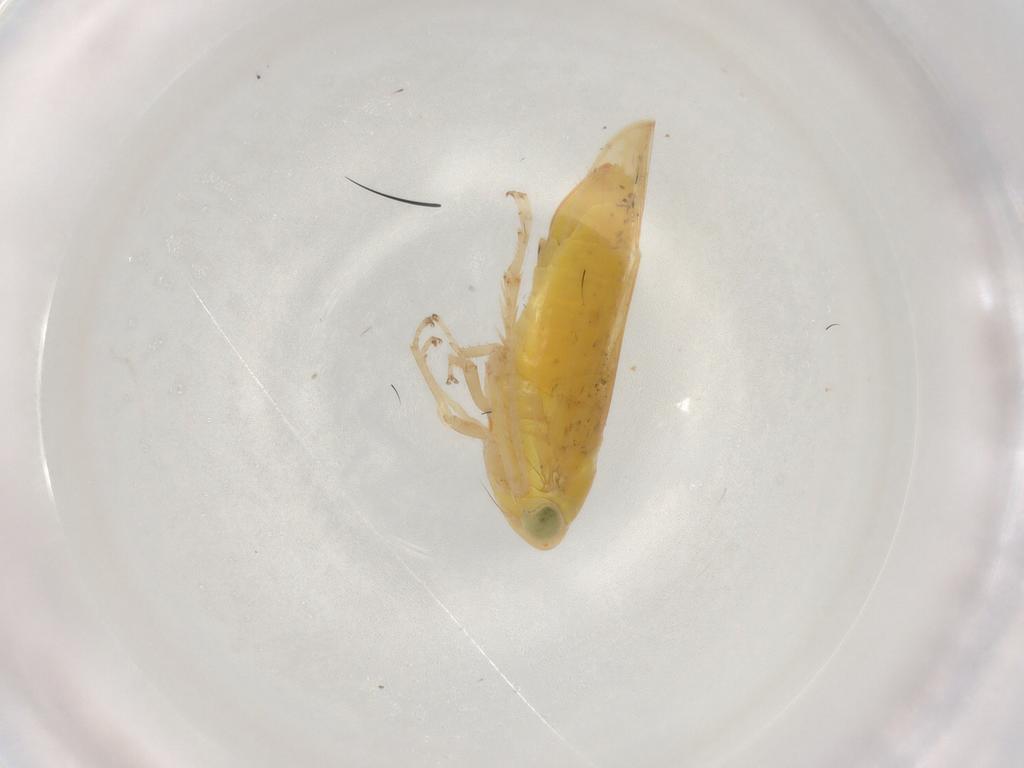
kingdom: Animalia
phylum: Arthropoda
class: Insecta
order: Hemiptera
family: Cicadellidae
